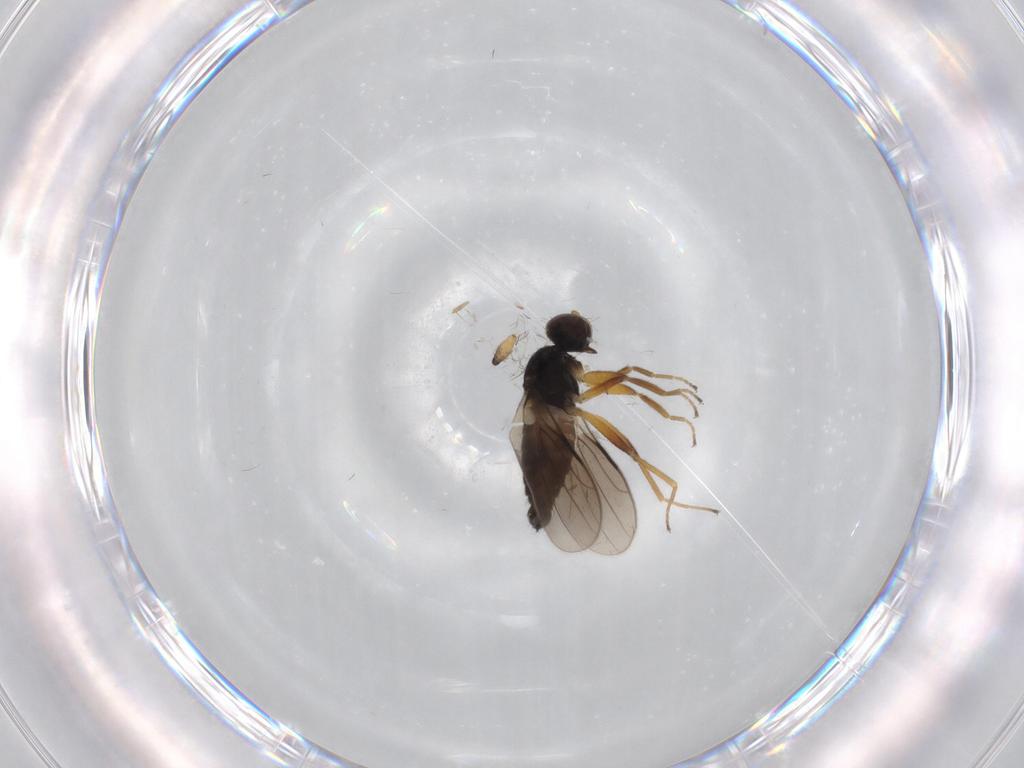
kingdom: Animalia
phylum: Arthropoda
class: Insecta
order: Diptera
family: Hybotidae
